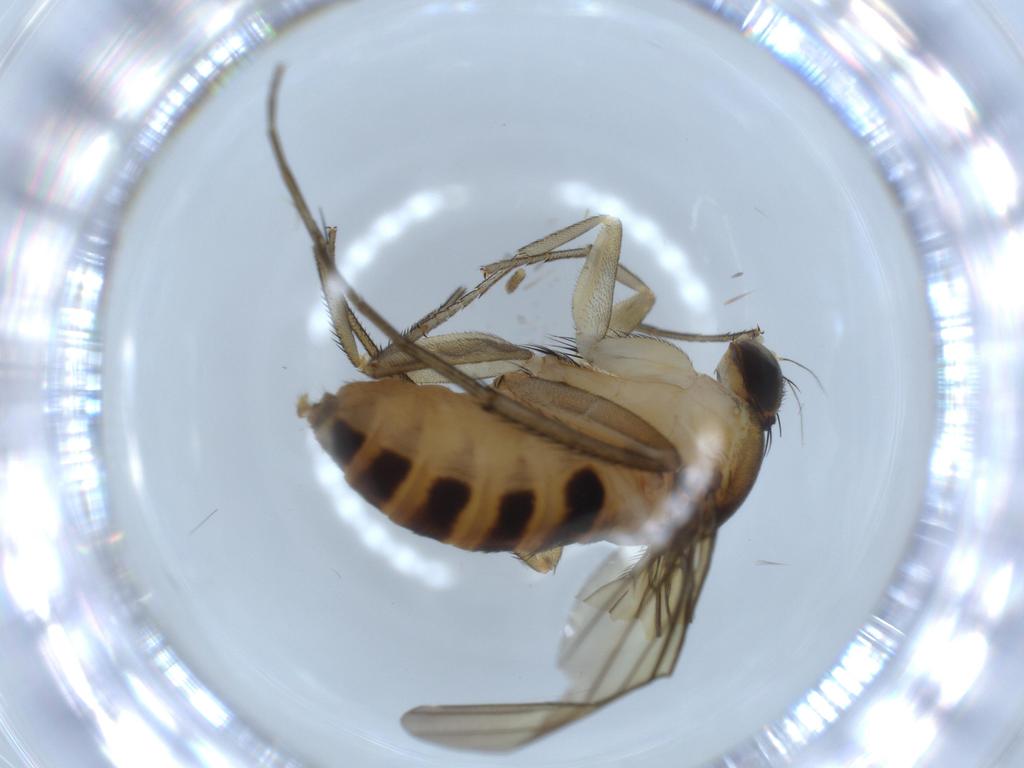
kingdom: Animalia
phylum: Arthropoda
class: Insecta
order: Diptera
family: Phoridae
